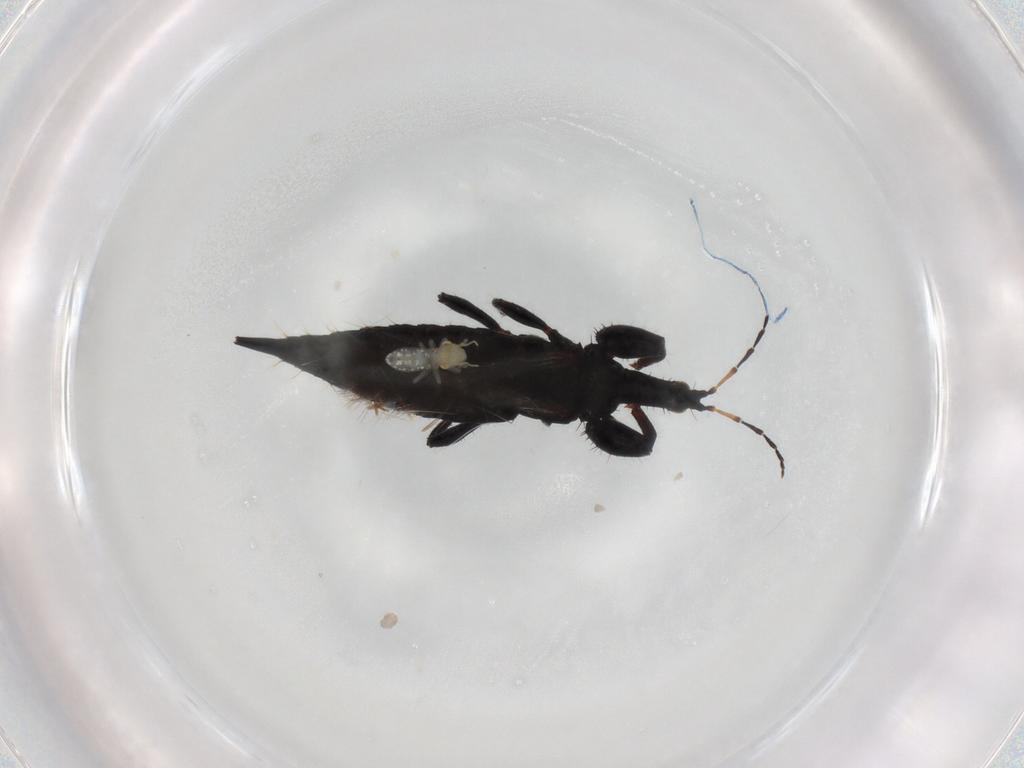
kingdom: Animalia
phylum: Arthropoda
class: Insecta
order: Thysanoptera
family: Phlaeothripidae
